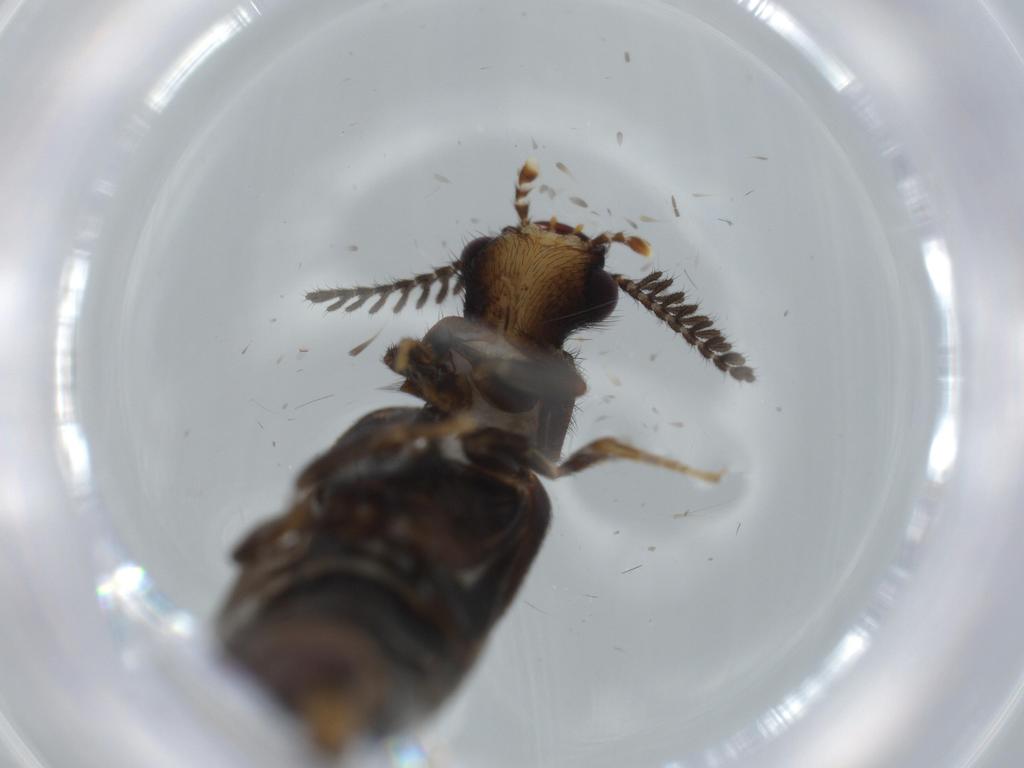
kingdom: Animalia
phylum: Arthropoda
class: Insecta
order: Coleoptera
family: Phengodidae
